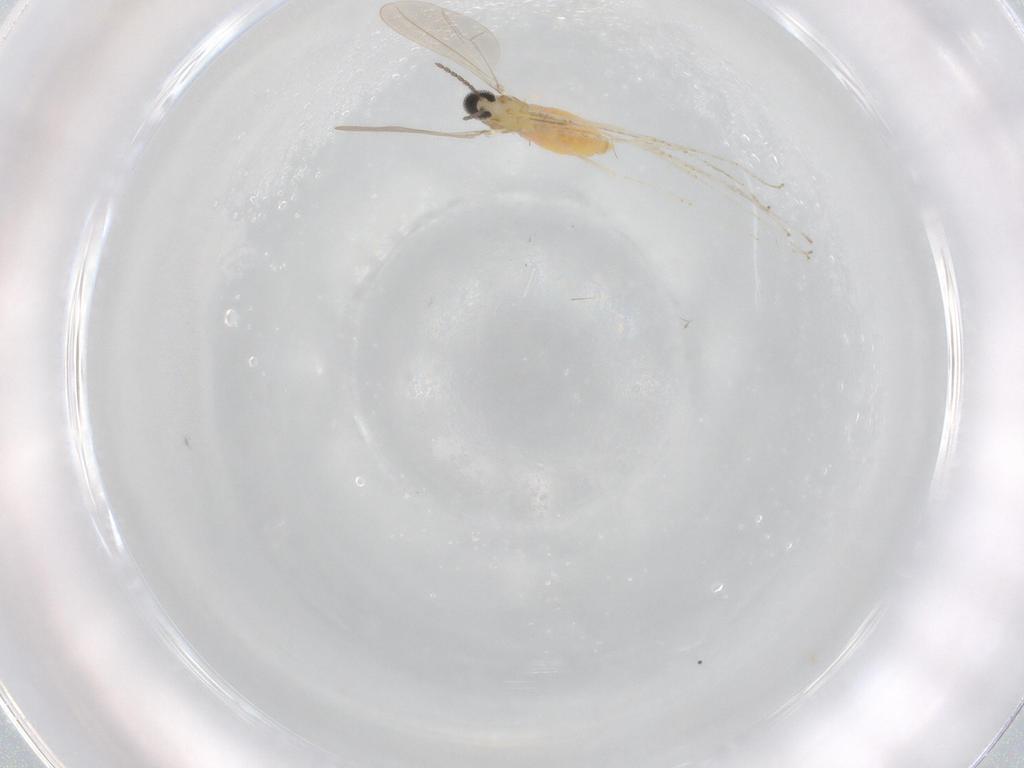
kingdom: Animalia
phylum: Arthropoda
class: Insecta
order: Diptera
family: Cecidomyiidae
